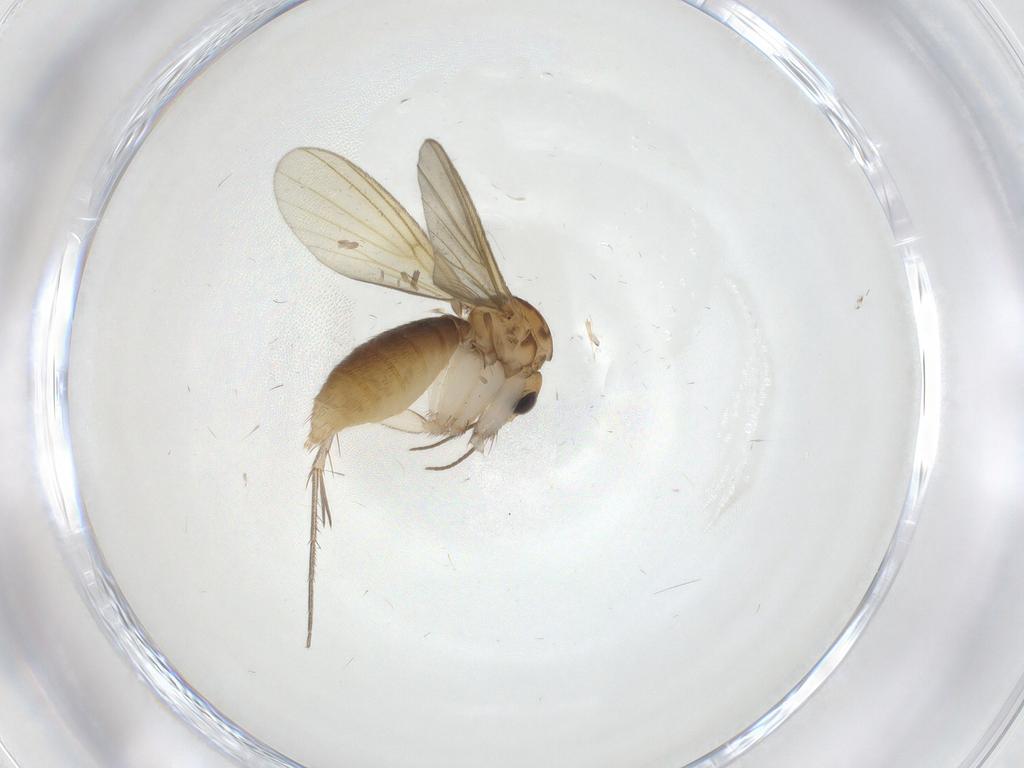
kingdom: Animalia
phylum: Arthropoda
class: Insecta
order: Diptera
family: Mycetophilidae
